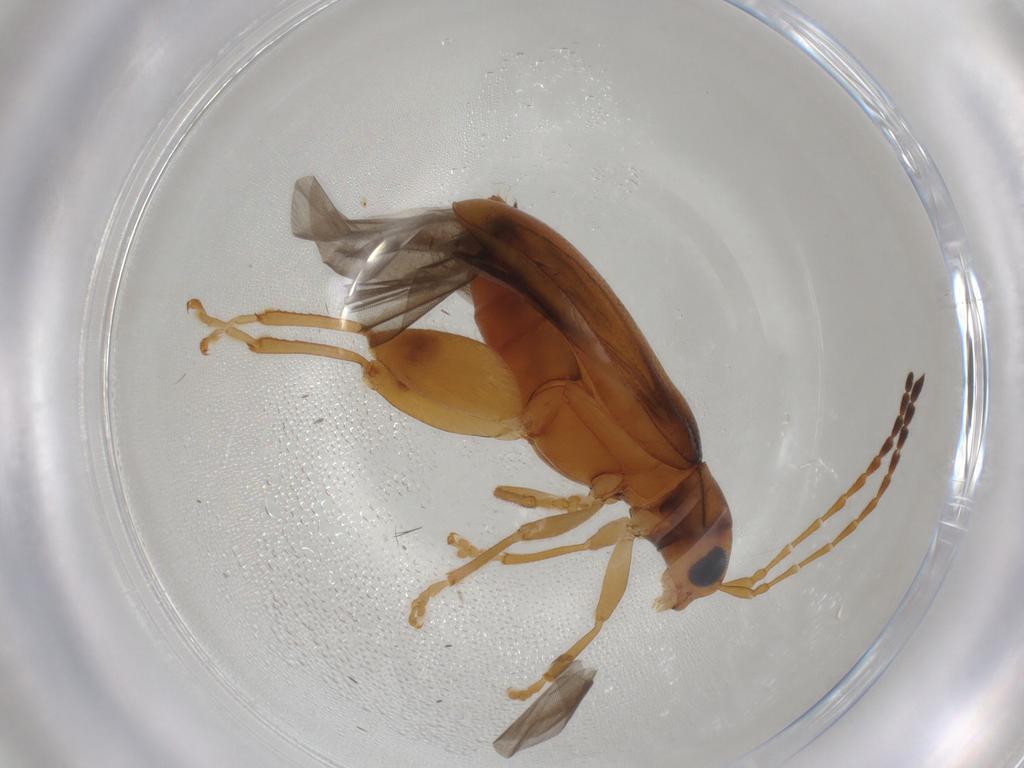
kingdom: Animalia
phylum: Arthropoda
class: Insecta
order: Coleoptera
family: Chrysomelidae
